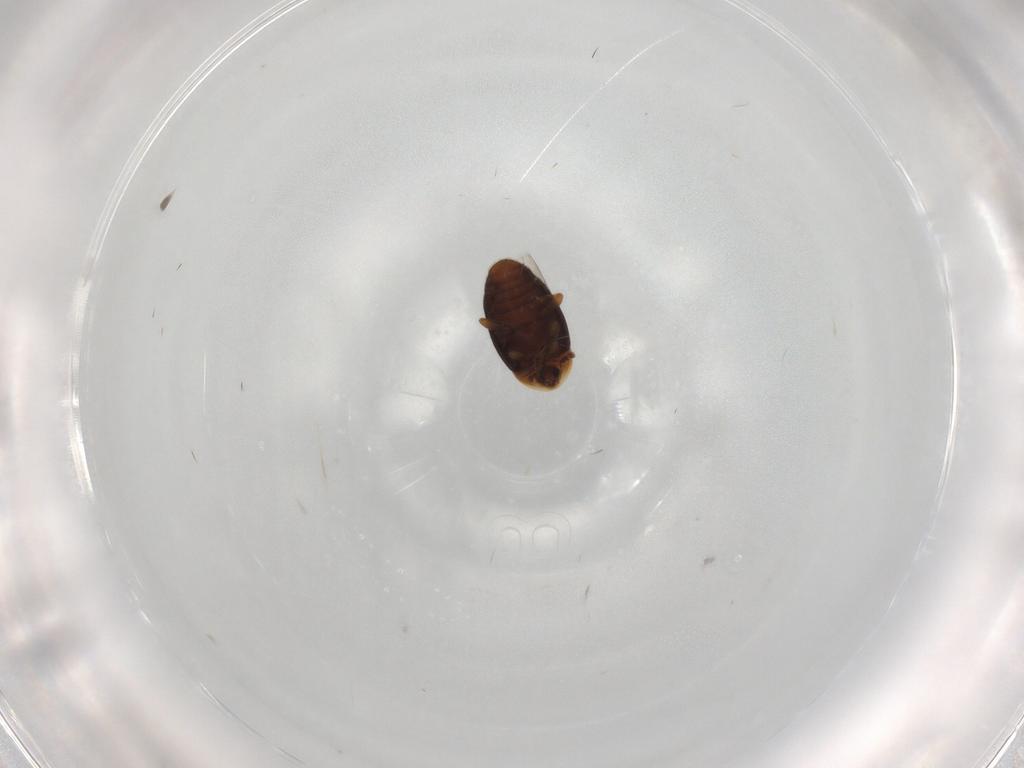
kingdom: Animalia
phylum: Arthropoda
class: Insecta
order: Coleoptera
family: Corylophidae
